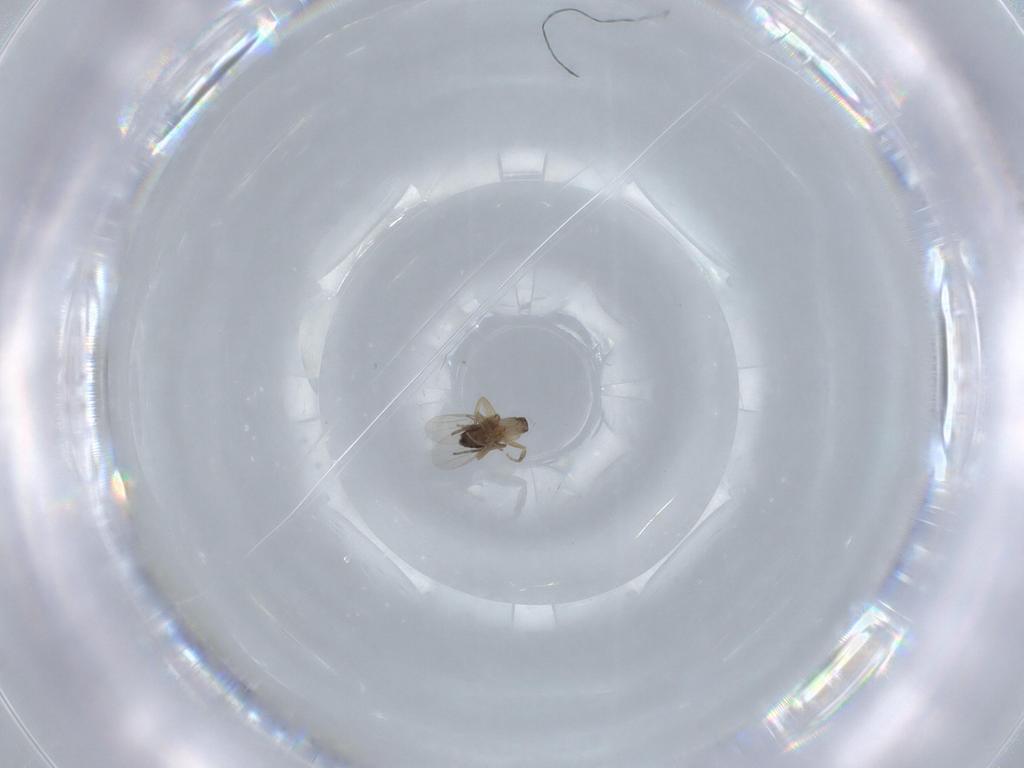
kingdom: Animalia
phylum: Arthropoda
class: Insecta
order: Diptera
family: Phoridae
